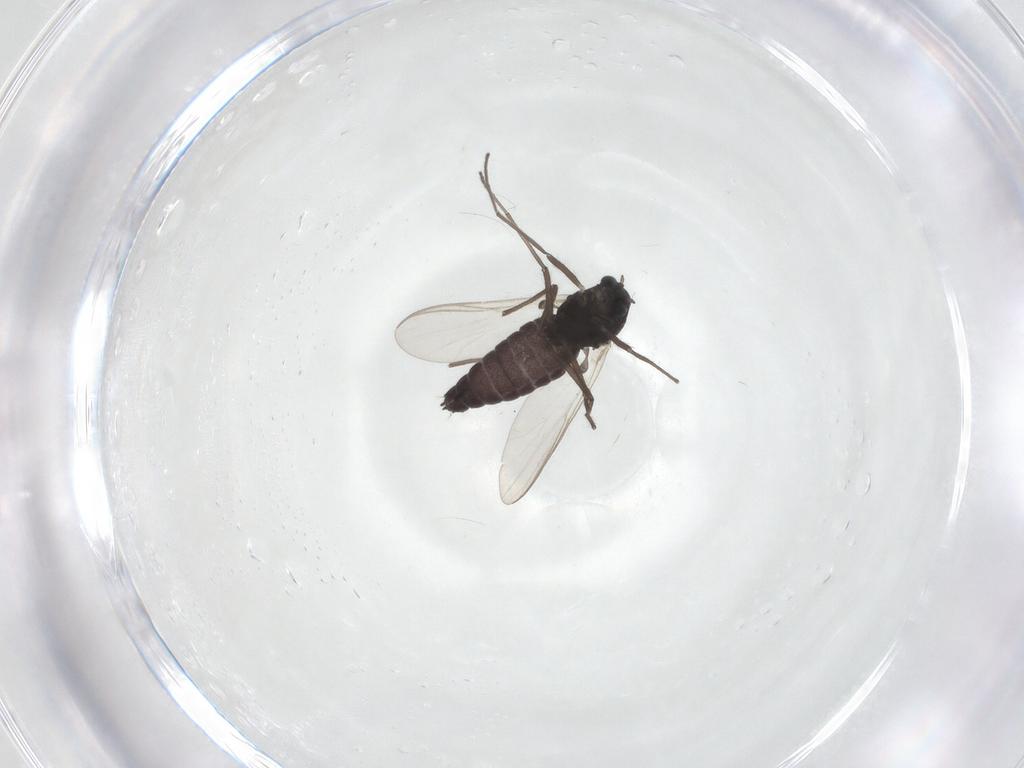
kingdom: Animalia
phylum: Arthropoda
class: Insecta
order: Diptera
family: Chironomidae
